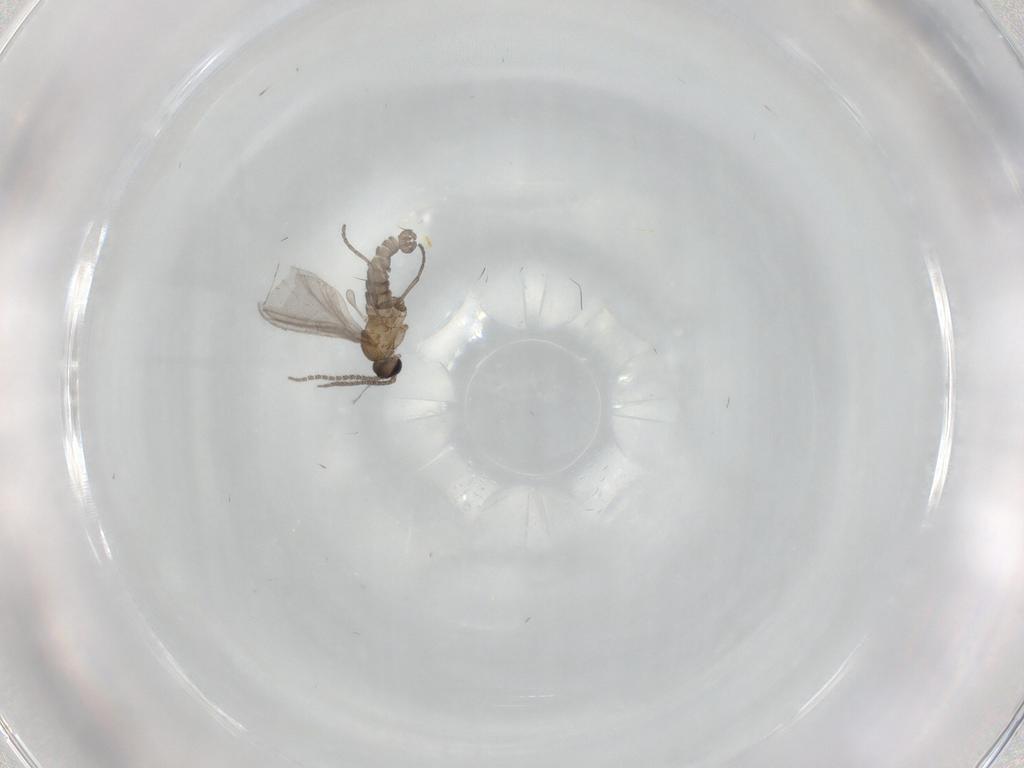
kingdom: Animalia
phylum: Arthropoda
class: Insecta
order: Diptera
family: Sciaridae
